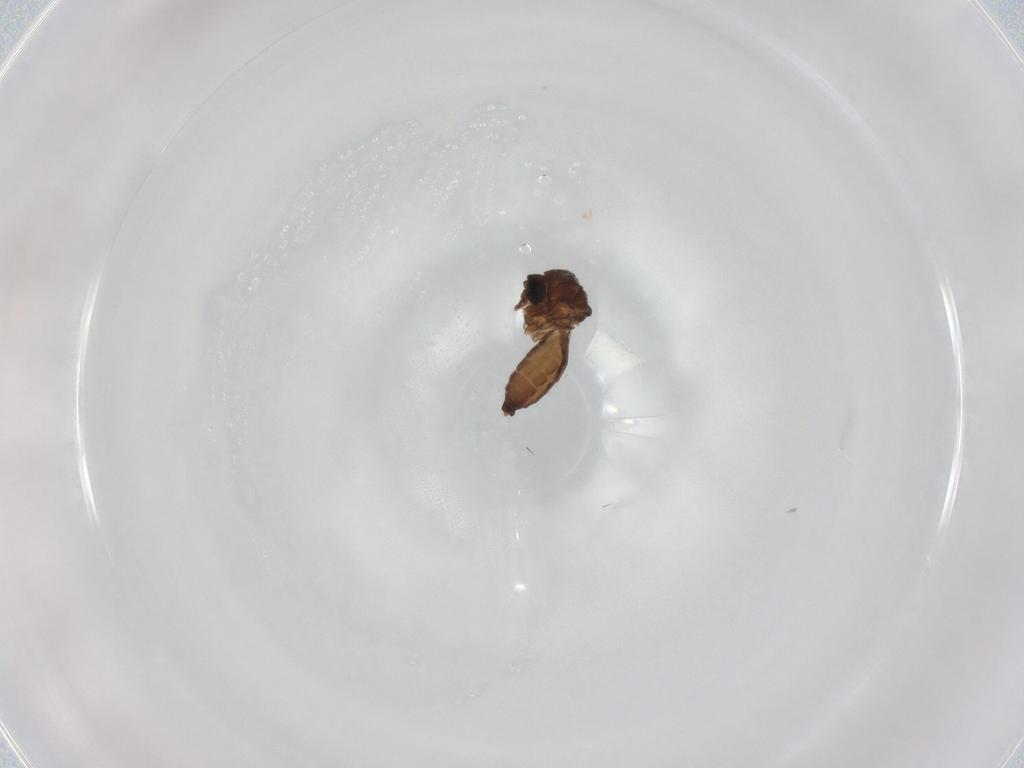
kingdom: Animalia
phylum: Arthropoda
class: Insecta
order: Diptera
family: Ceratopogonidae
